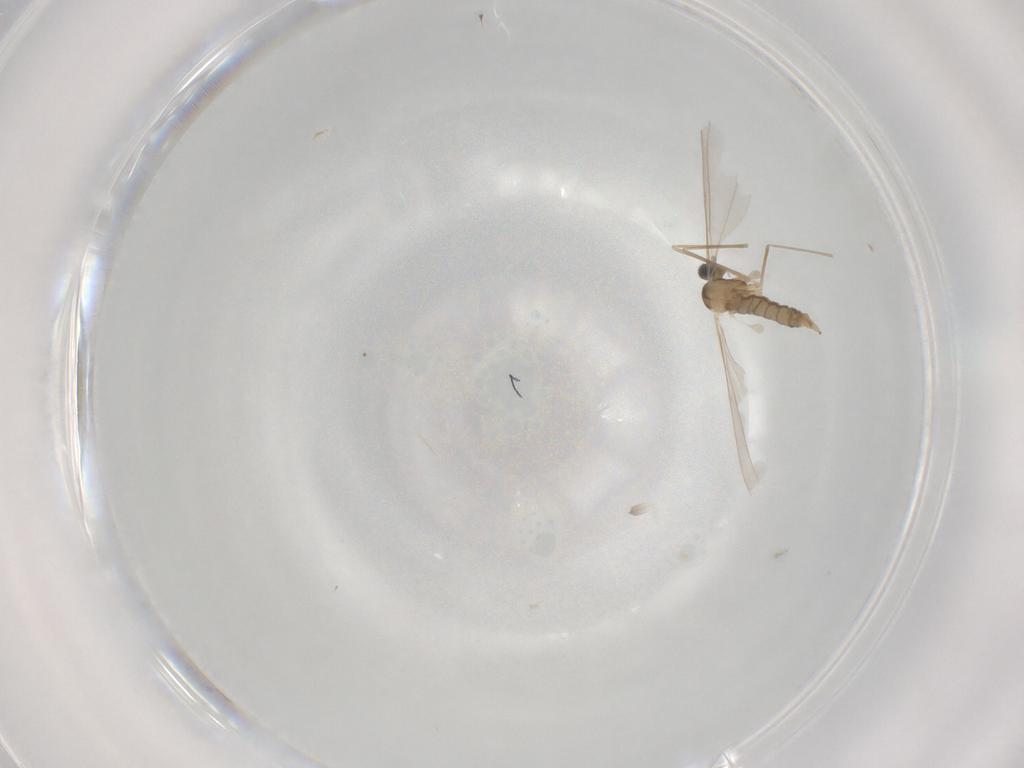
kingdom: Animalia
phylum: Arthropoda
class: Insecta
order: Diptera
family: Cecidomyiidae
